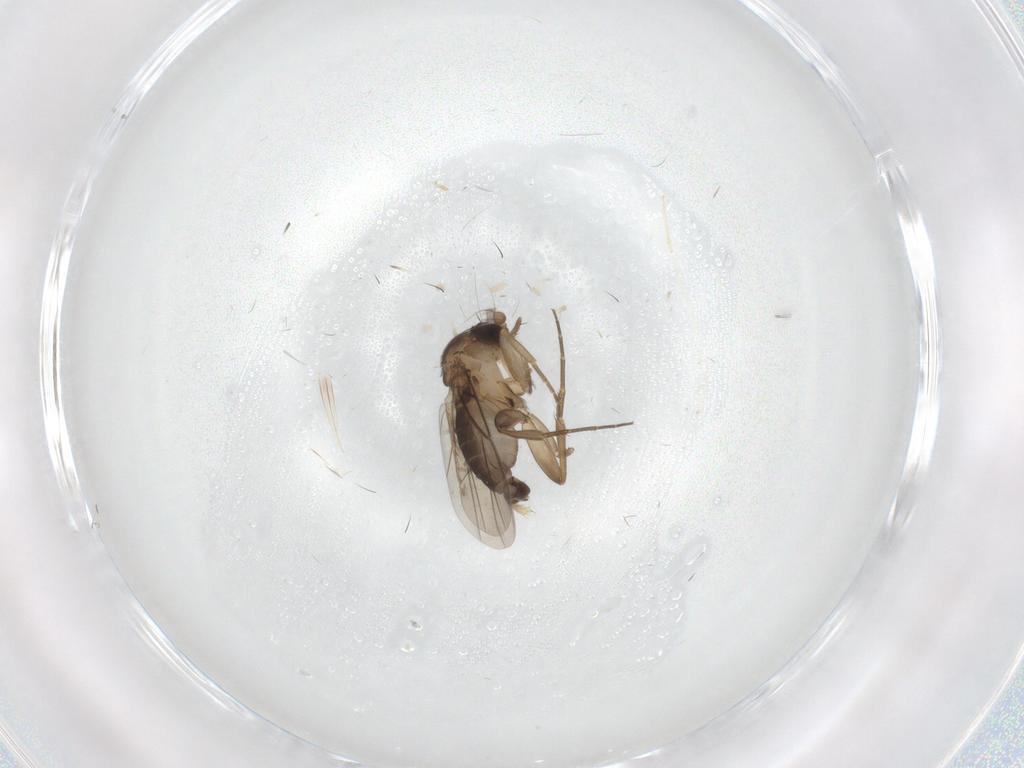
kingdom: Animalia
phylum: Arthropoda
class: Insecta
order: Diptera
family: Phoridae
